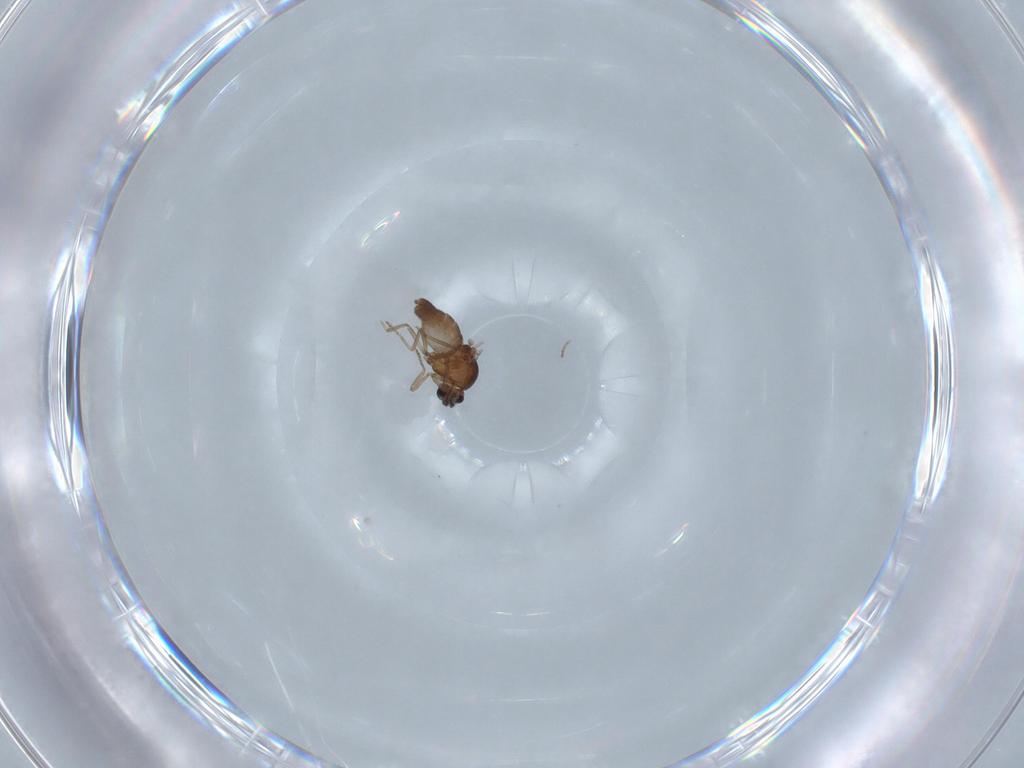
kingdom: Animalia
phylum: Arthropoda
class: Insecta
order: Diptera
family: Ceratopogonidae
